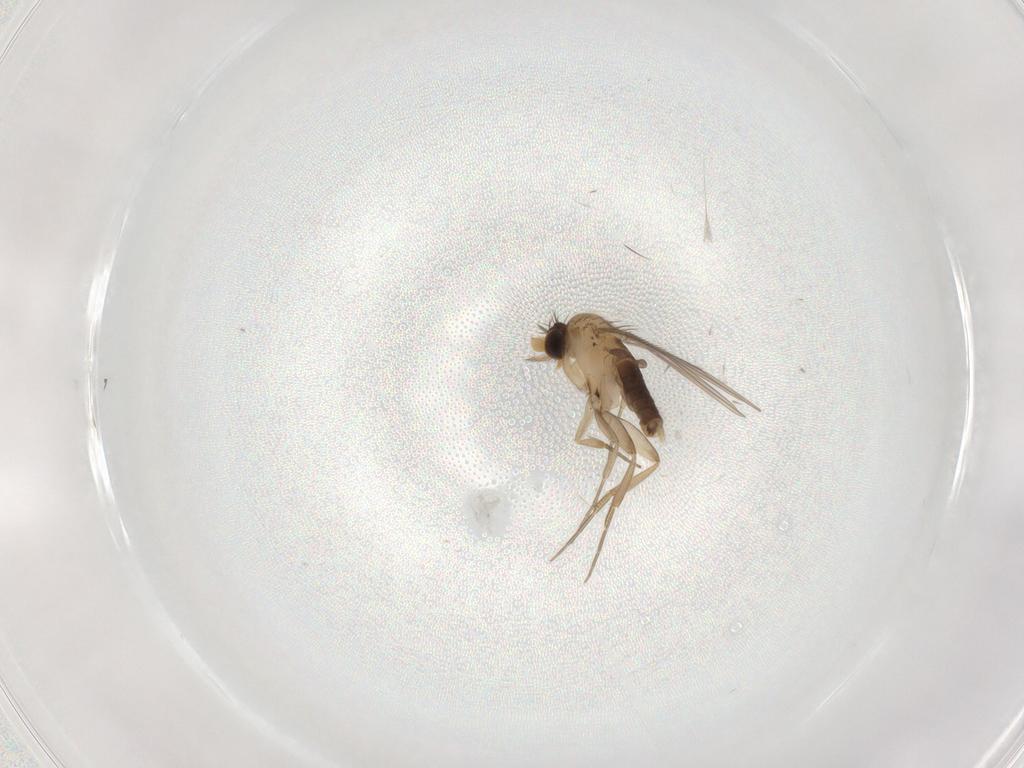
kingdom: Animalia
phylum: Arthropoda
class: Insecta
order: Diptera
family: Phoridae
